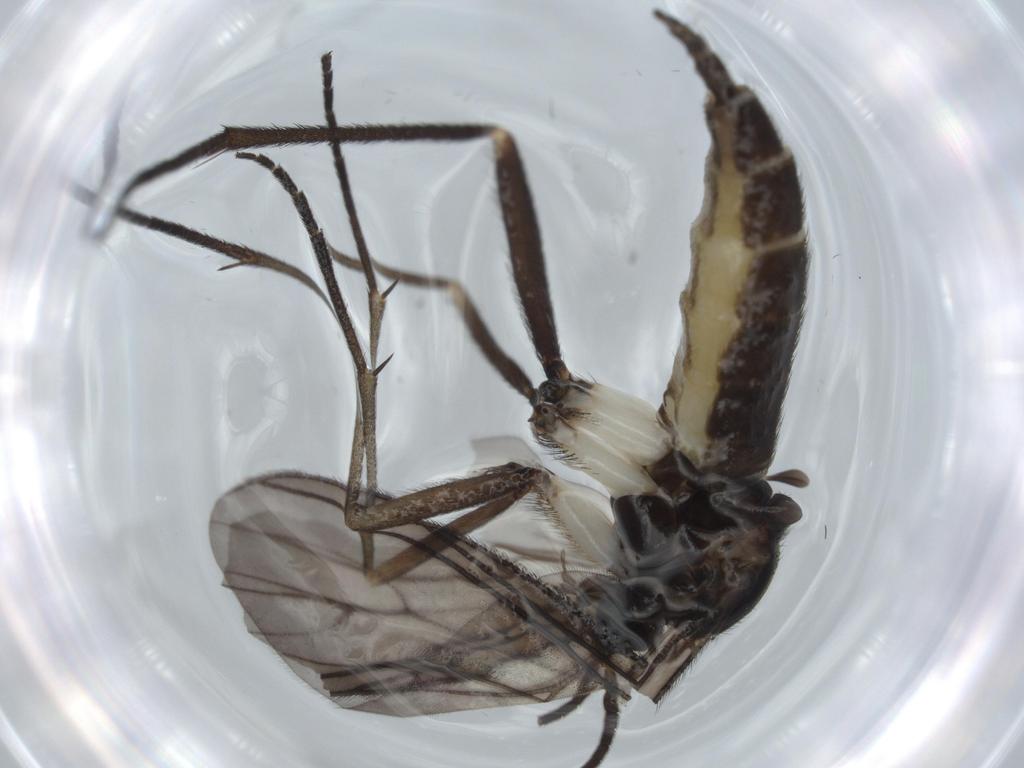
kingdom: Animalia
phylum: Arthropoda
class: Insecta
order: Diptera
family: Sciaridae
